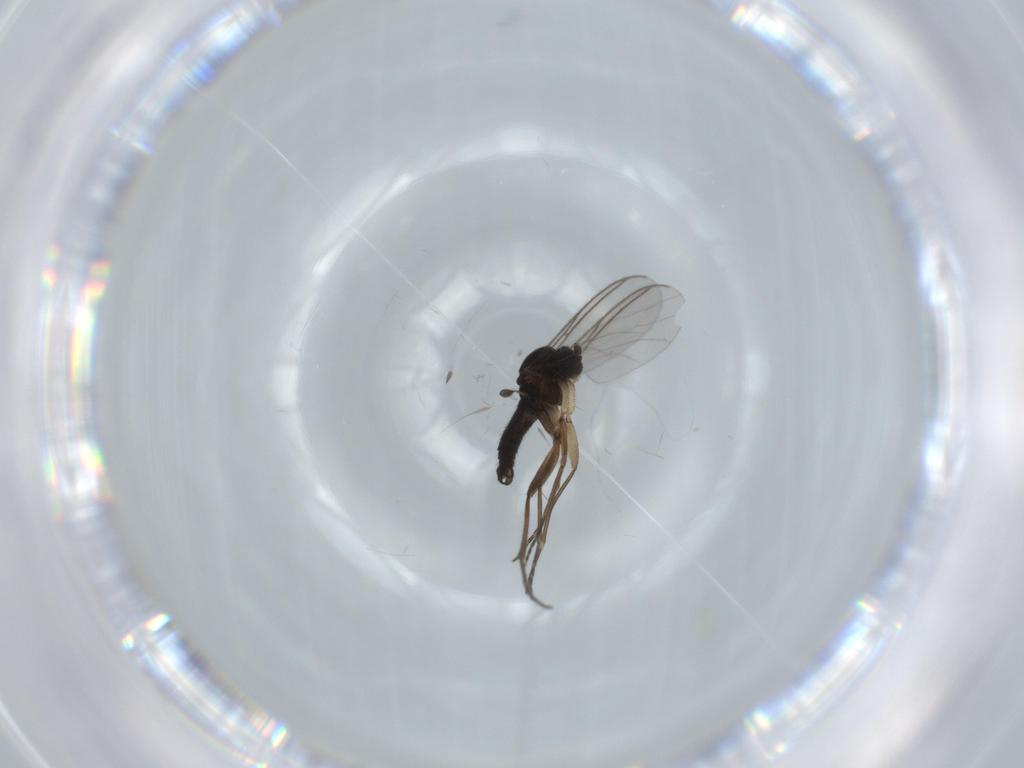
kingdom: Animalia
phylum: Arthropoda
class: Insecta
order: Diptera
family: Sciaridae
